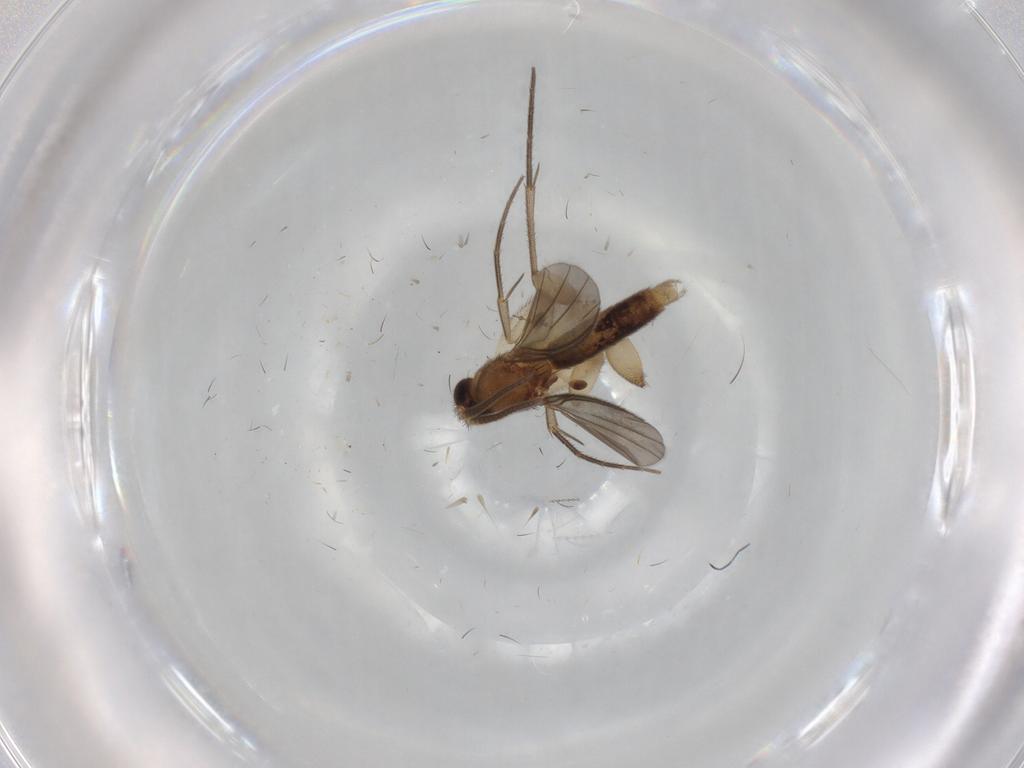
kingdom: Animalia
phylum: Arthropoda
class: Insecta
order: Diptera
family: Mycetophilidae
